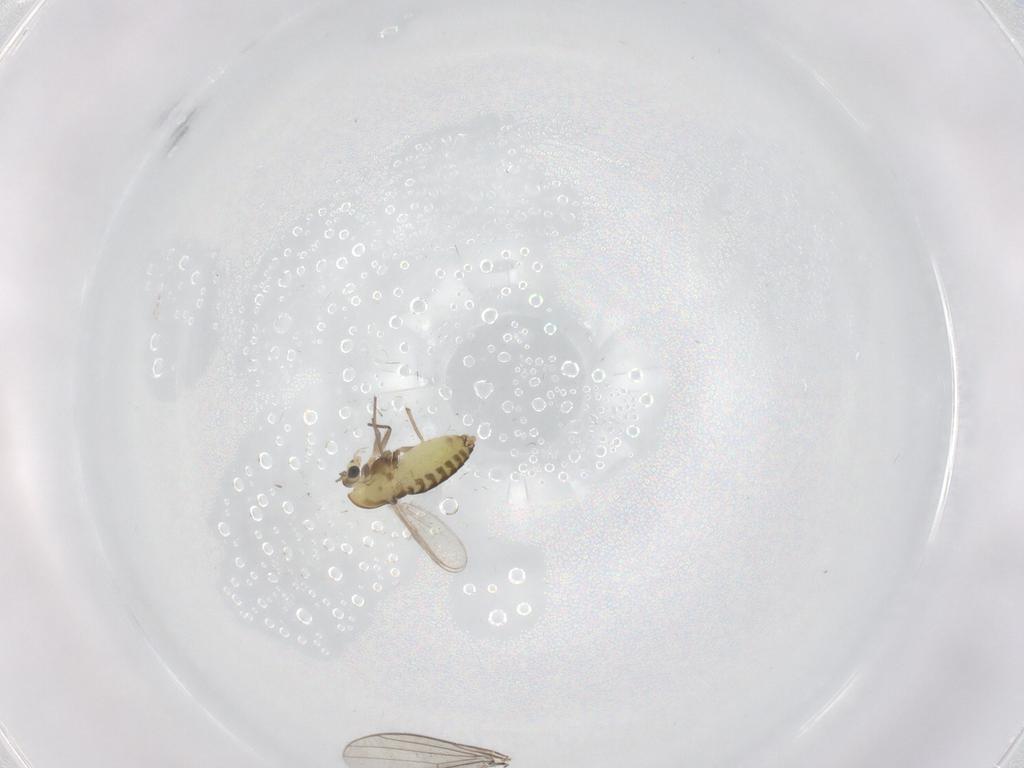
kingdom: Animalia
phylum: Arthropoda
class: Insecta
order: Diptera
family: Chironomidae
